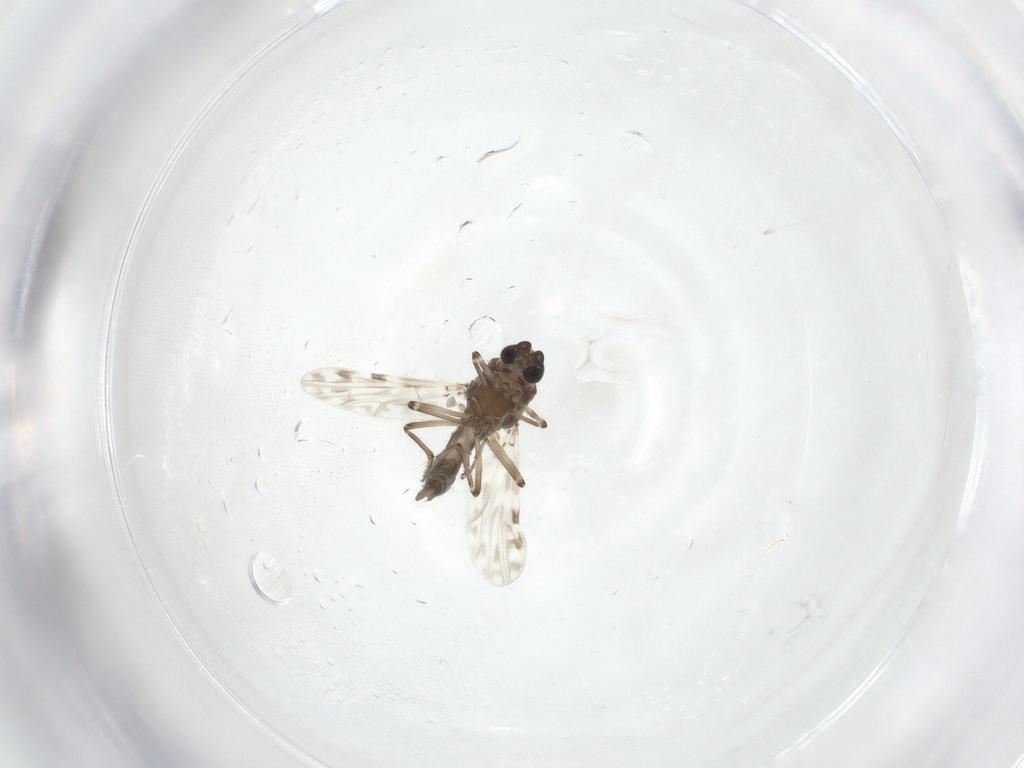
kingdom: Animalia
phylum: Arthropoda
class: Insecta
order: Diptera
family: Ceratopogonidae
